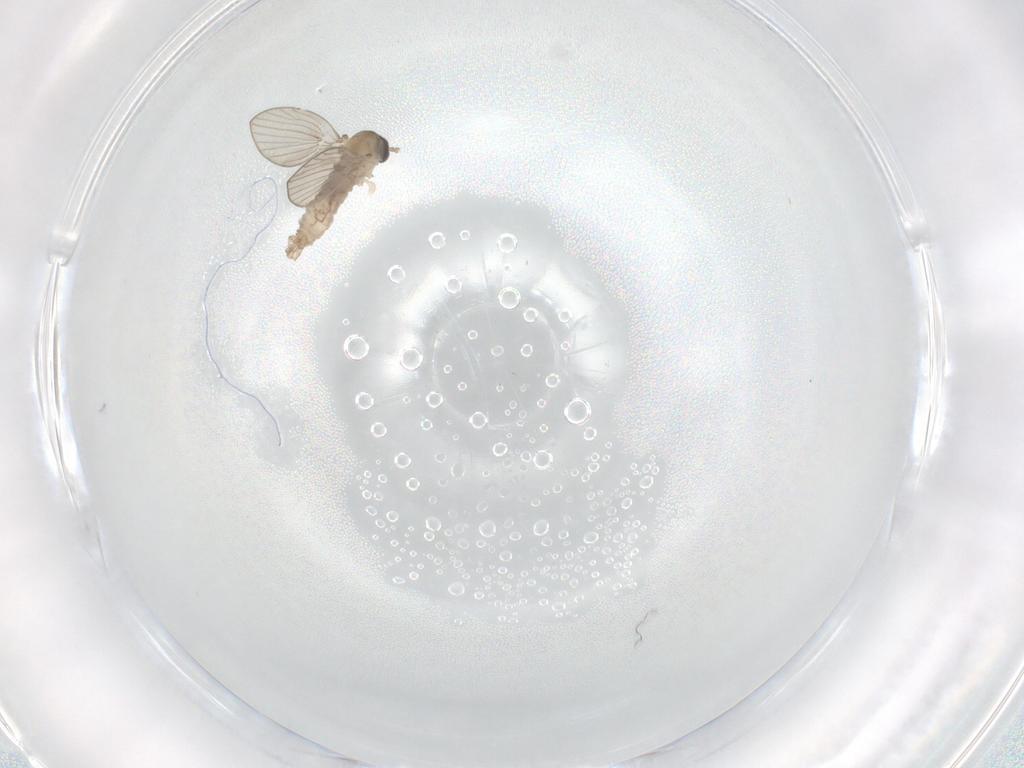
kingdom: Animalia
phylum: Arthropoda
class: Insecta
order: Diptera
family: Psychodidae
